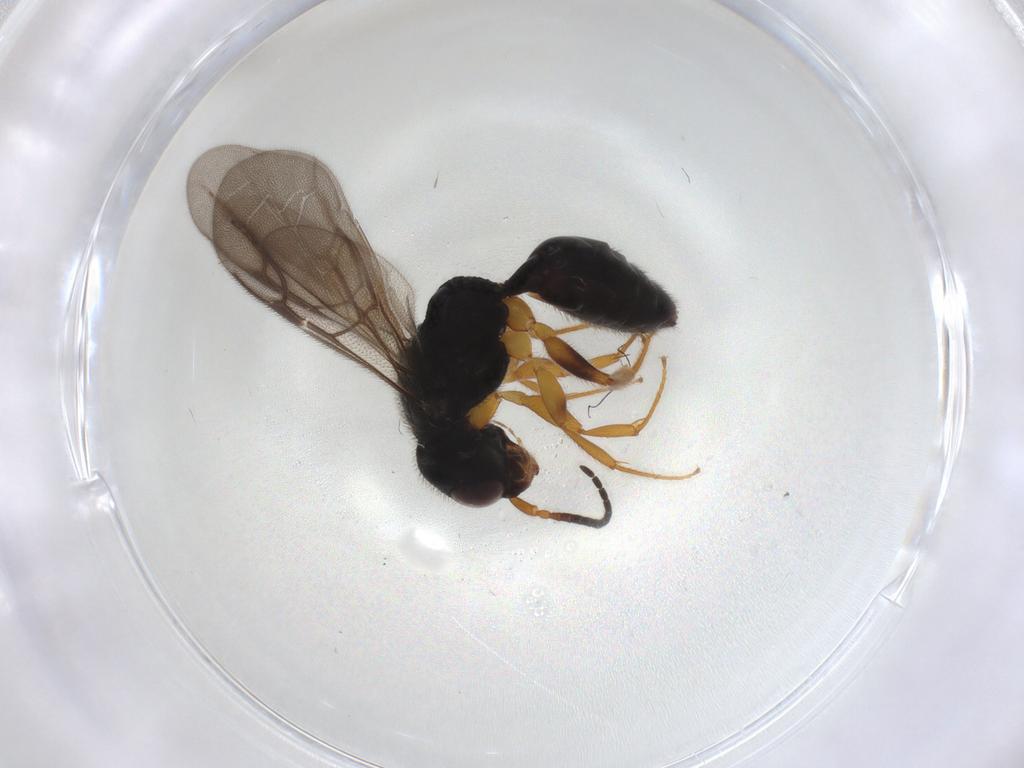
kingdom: Animalia
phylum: Arthropoda
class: Insecta
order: Hymenoptera
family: Bethylidae
